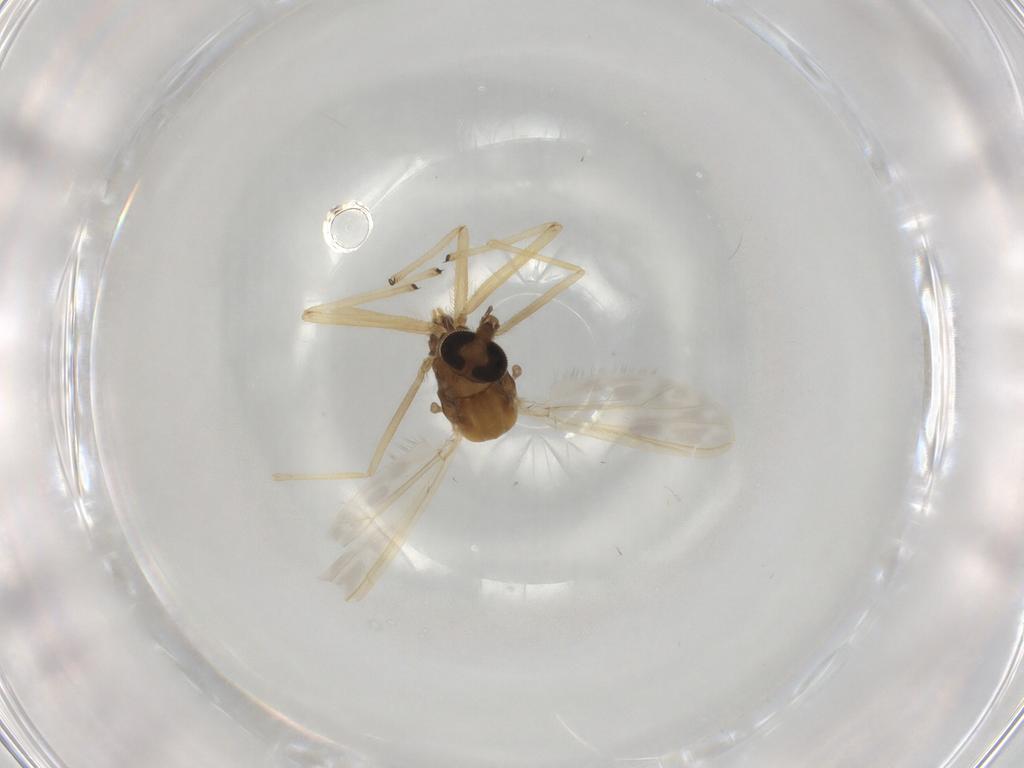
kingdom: Animalia
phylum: Arthropoda
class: Insecta
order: Diptera
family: Chironomidae
